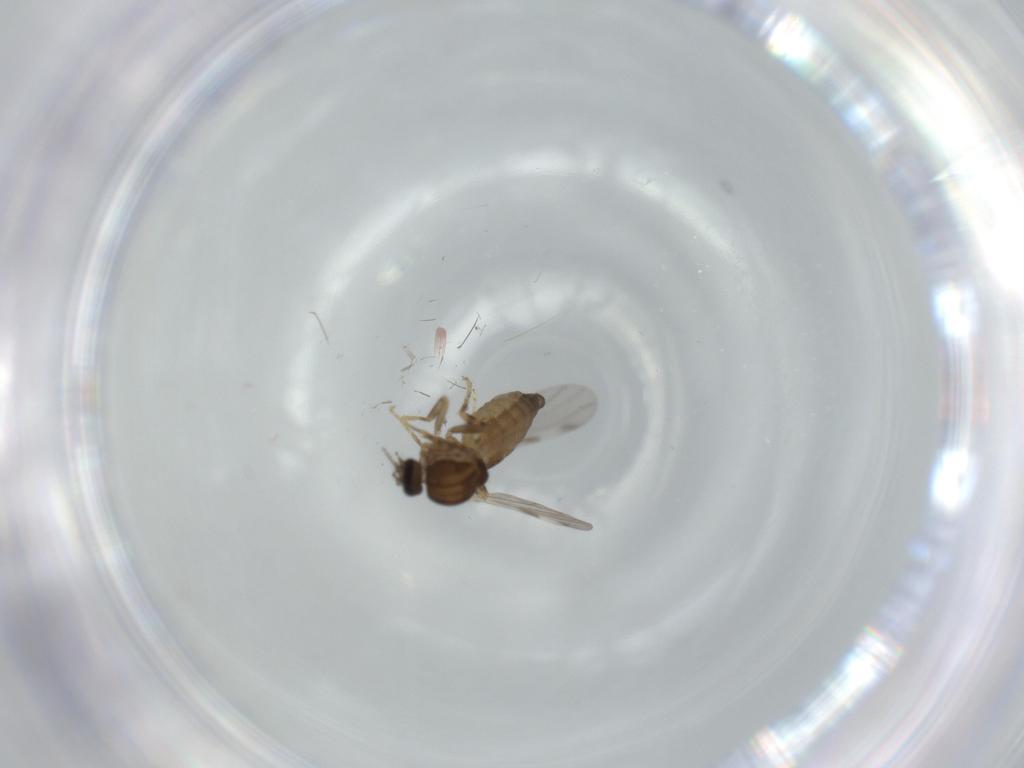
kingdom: Animalia
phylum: Arthropoda
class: Insecta
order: Diptera
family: Ceratopogonidae
